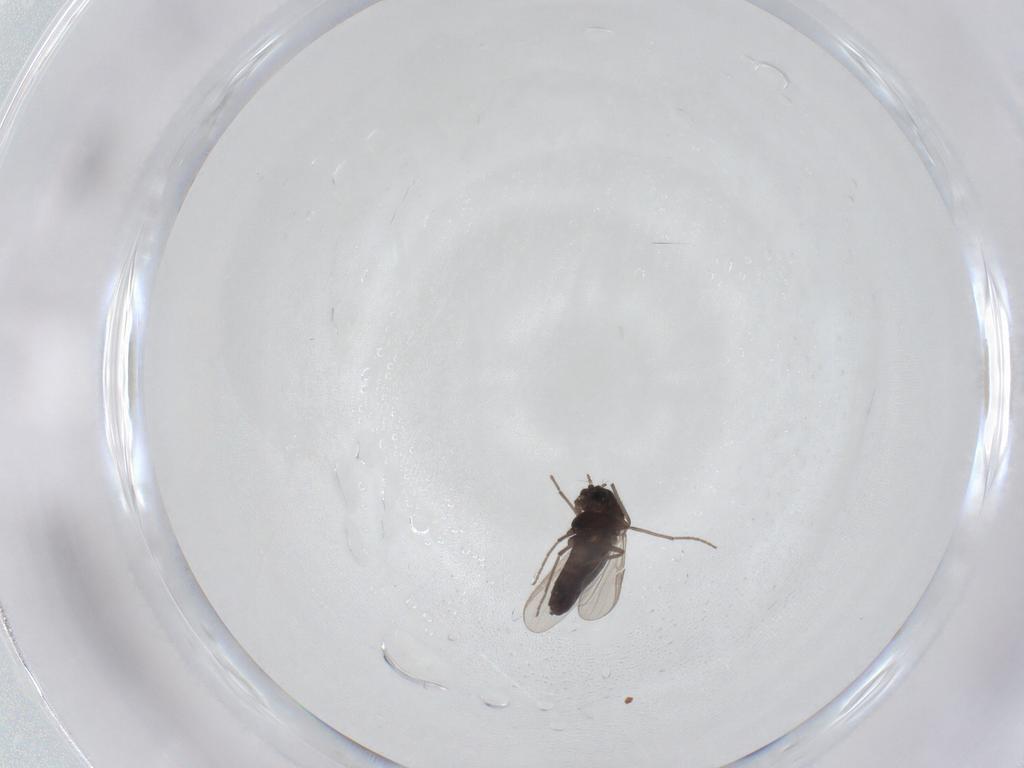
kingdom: Animalia
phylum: Arthropoda
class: Insecta
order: Diptera
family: Chironomidae
